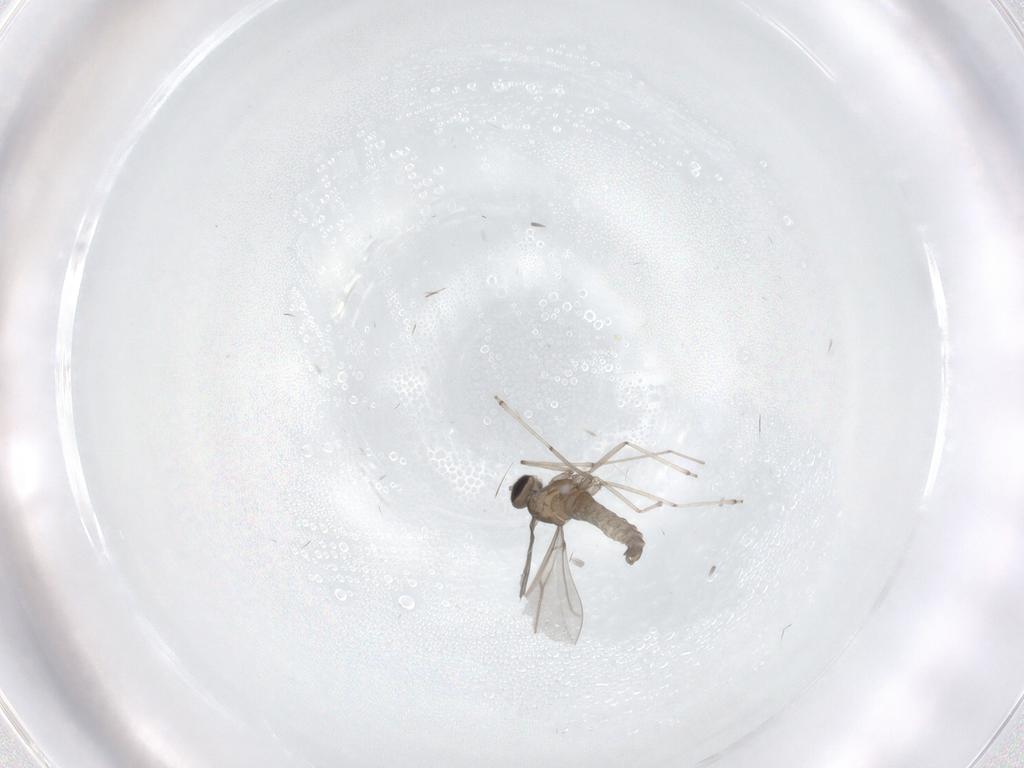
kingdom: Animalia
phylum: Arthropoda
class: Insecta
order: Diptera
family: Cecidomyiidae
